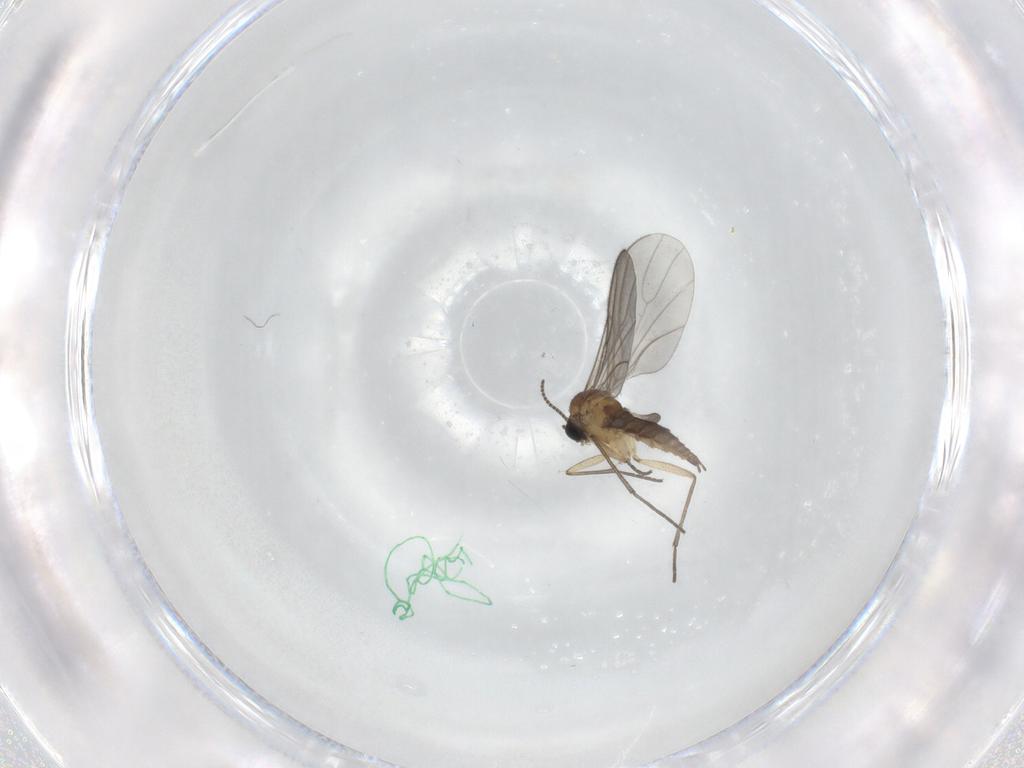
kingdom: Animalia
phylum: Arthropoda
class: Insecta
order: Diptera
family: Sciaridae
